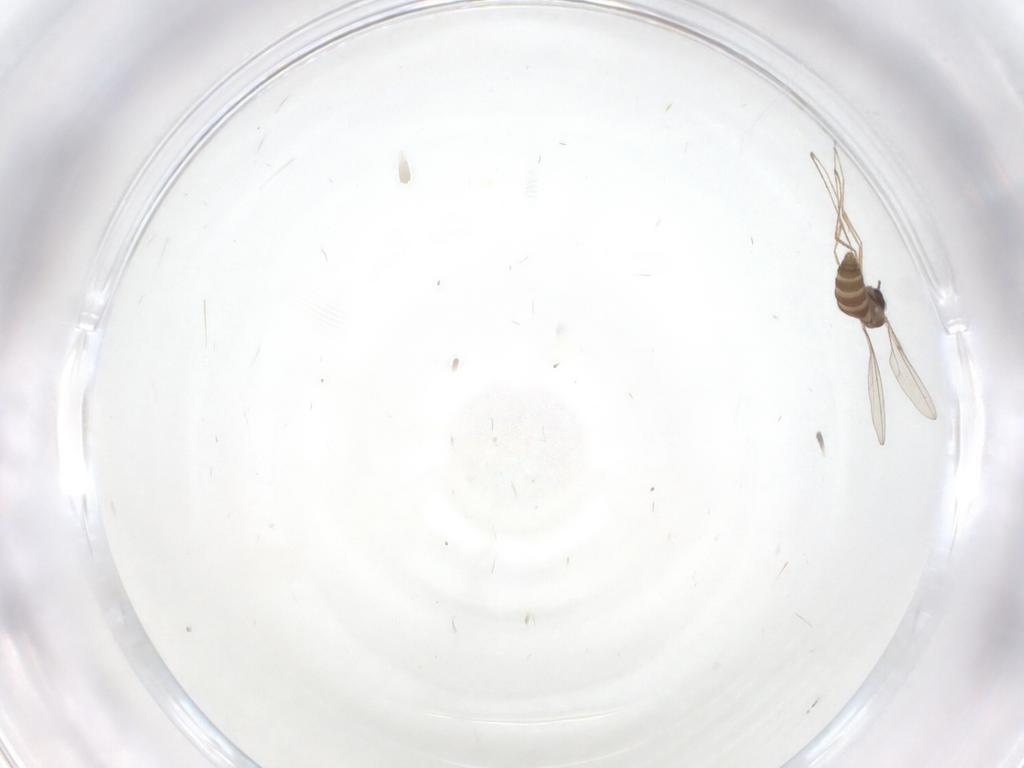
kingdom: Animalia
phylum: Arthropoda
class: Insecta
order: Diptera
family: Cecidomyiidae
